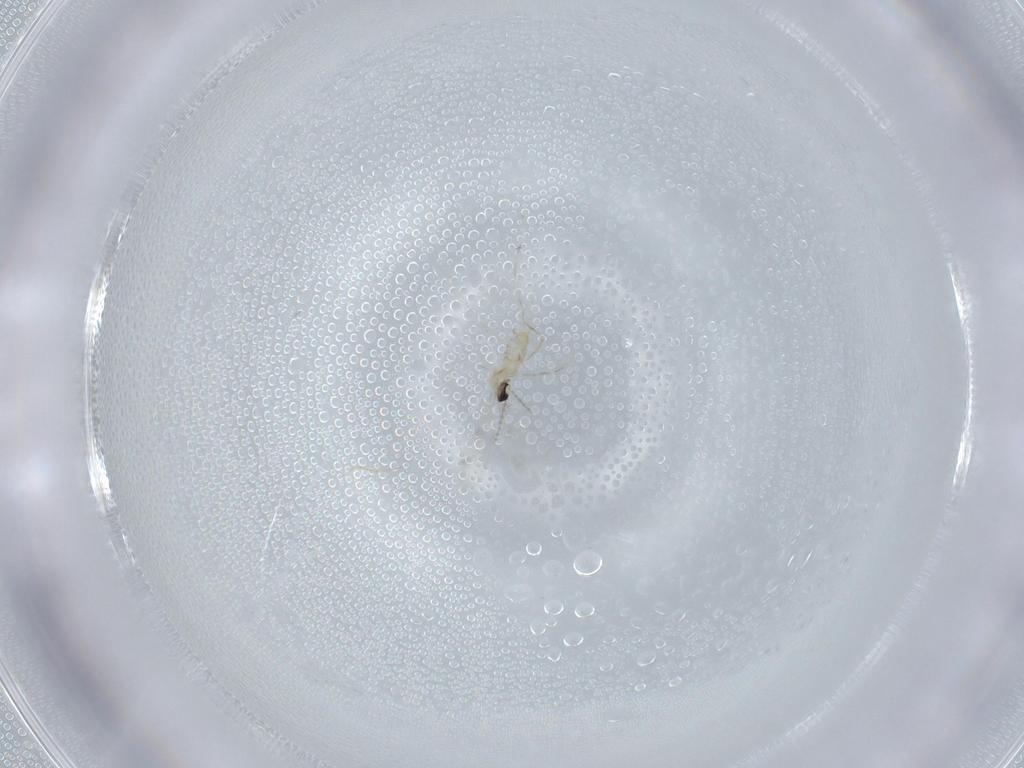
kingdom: Animalia
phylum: Arthropoda
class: Insecta
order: Diptera
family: Cecidomyiidae
